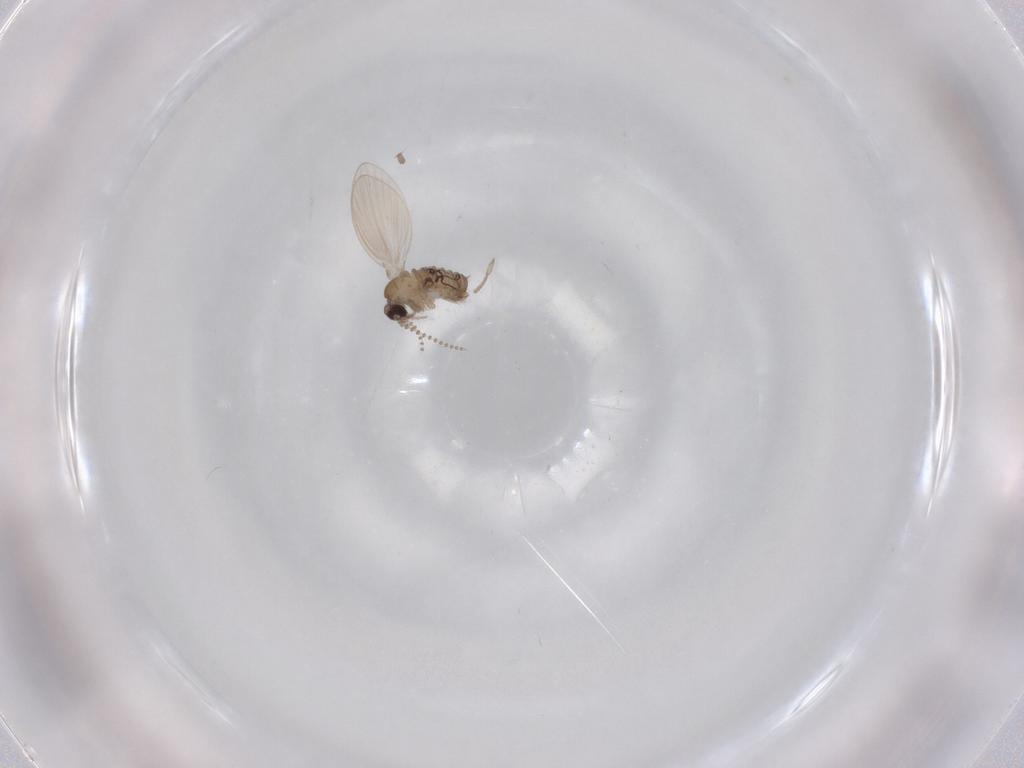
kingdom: Animalia
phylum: Arthropoda
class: Insecta
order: Diptera
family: Psychodidae
